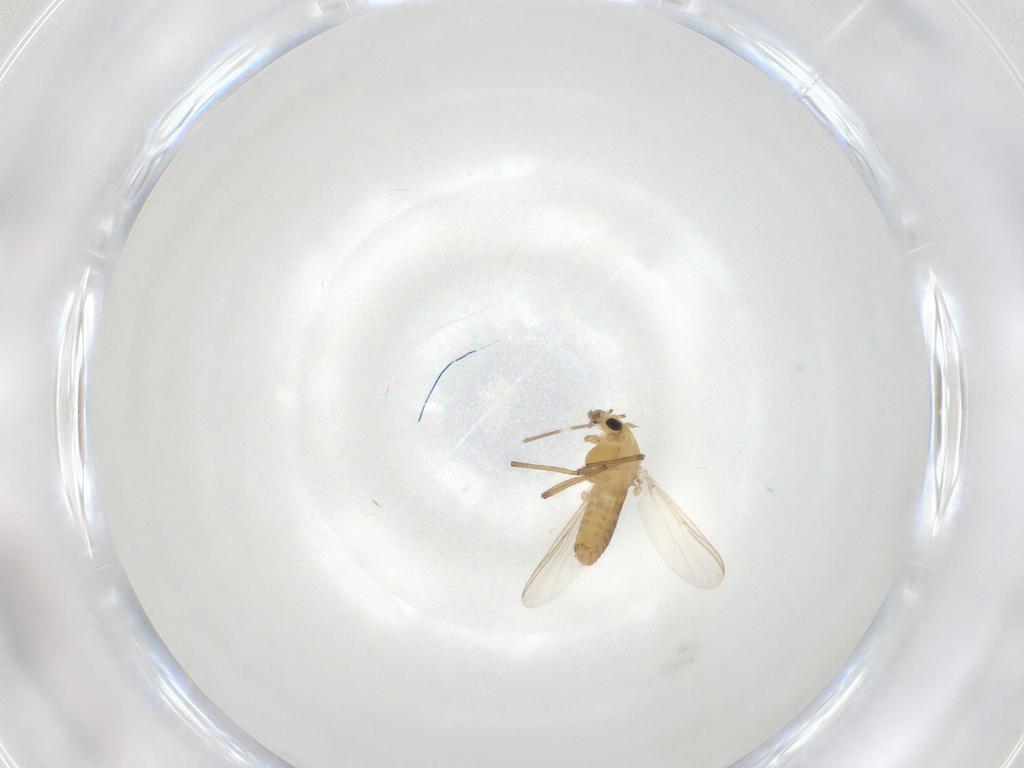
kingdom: Animalia
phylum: Arthropoda
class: Insecta
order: Diptera
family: Chironomidae
